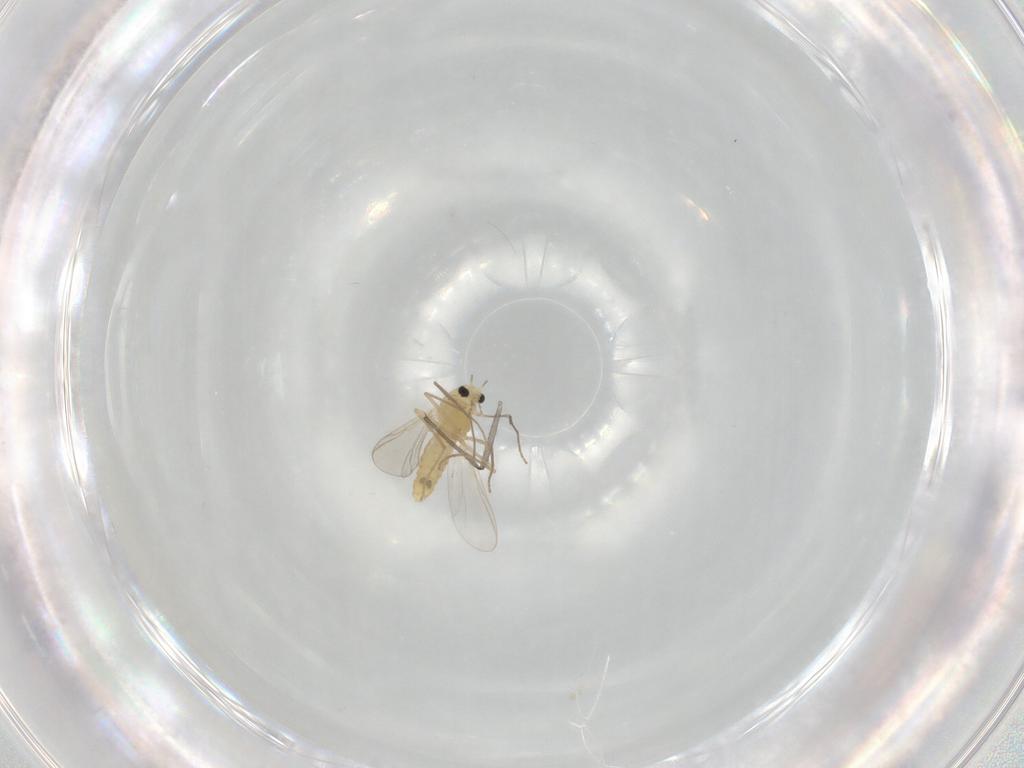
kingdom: Animalia
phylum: Arthropoda
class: Insecta
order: Diptera
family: Chironomidae
